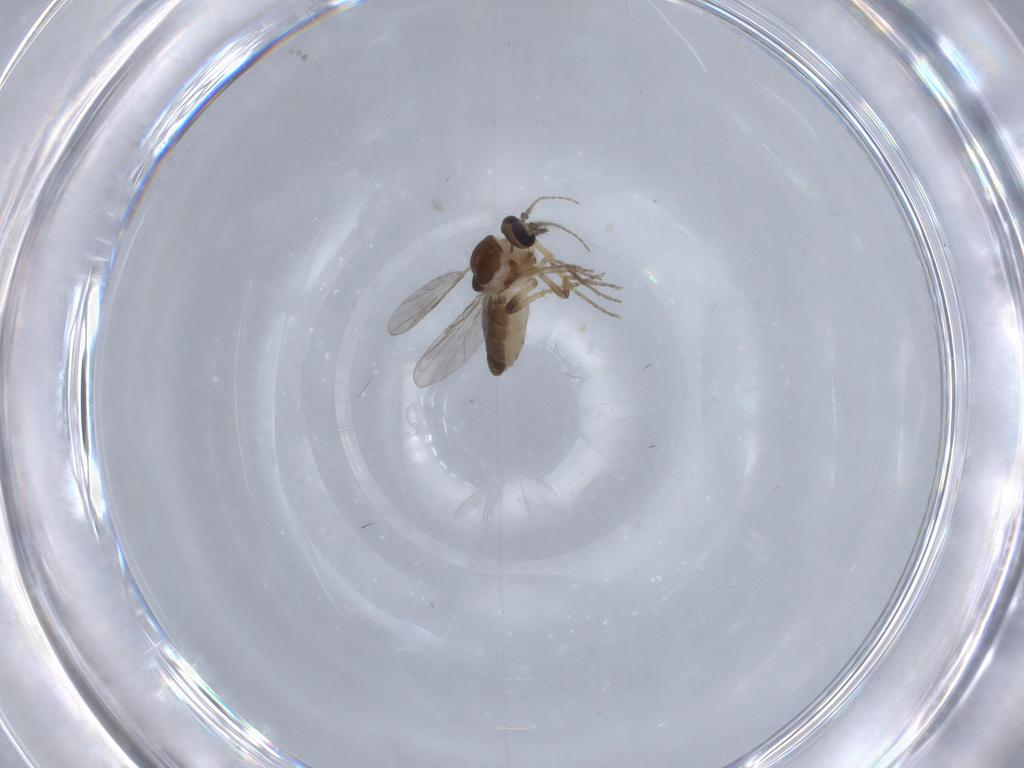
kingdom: Animalia
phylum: Arthropoda
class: Insecta
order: Diptera
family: Ceratopogonidae
